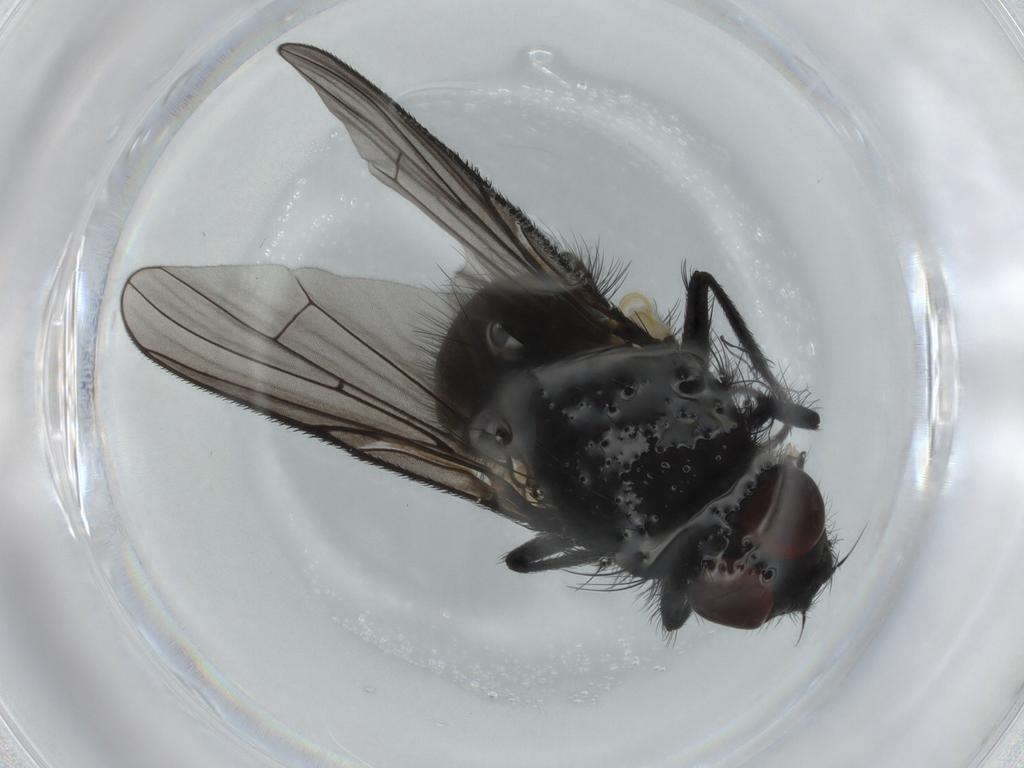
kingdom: Animalia
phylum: Arthropoda
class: Insecta
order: Diptera
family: Muscidae
